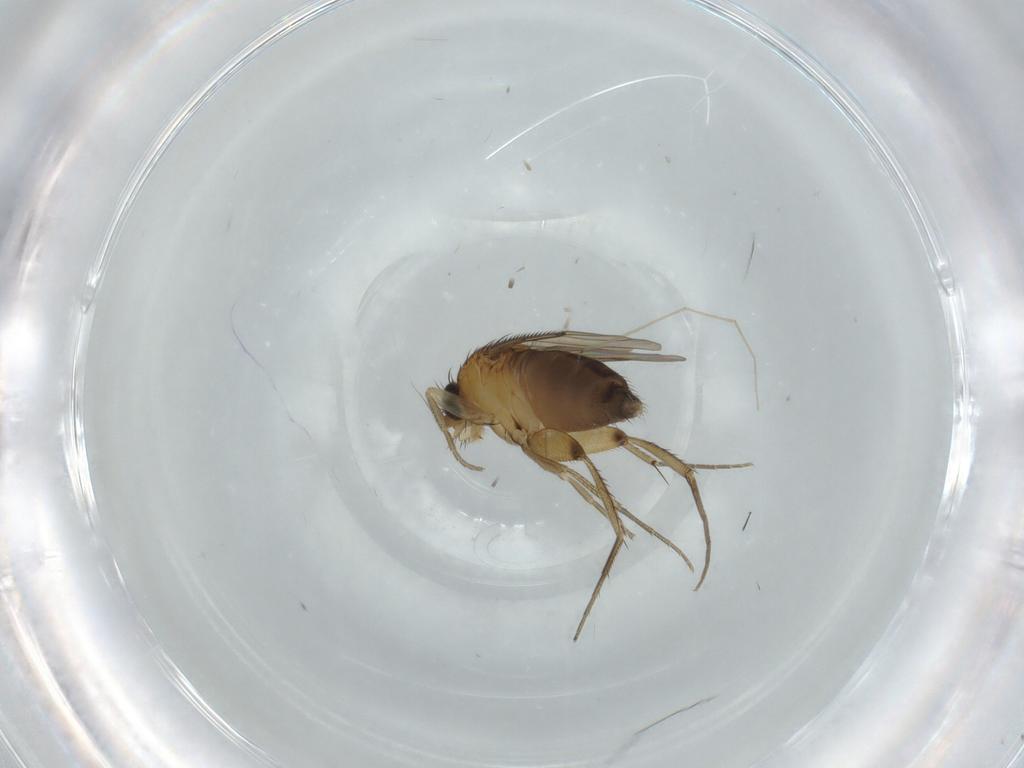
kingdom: Animalia
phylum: Arthropoda
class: Insecta
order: Diptera
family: Phoridae
